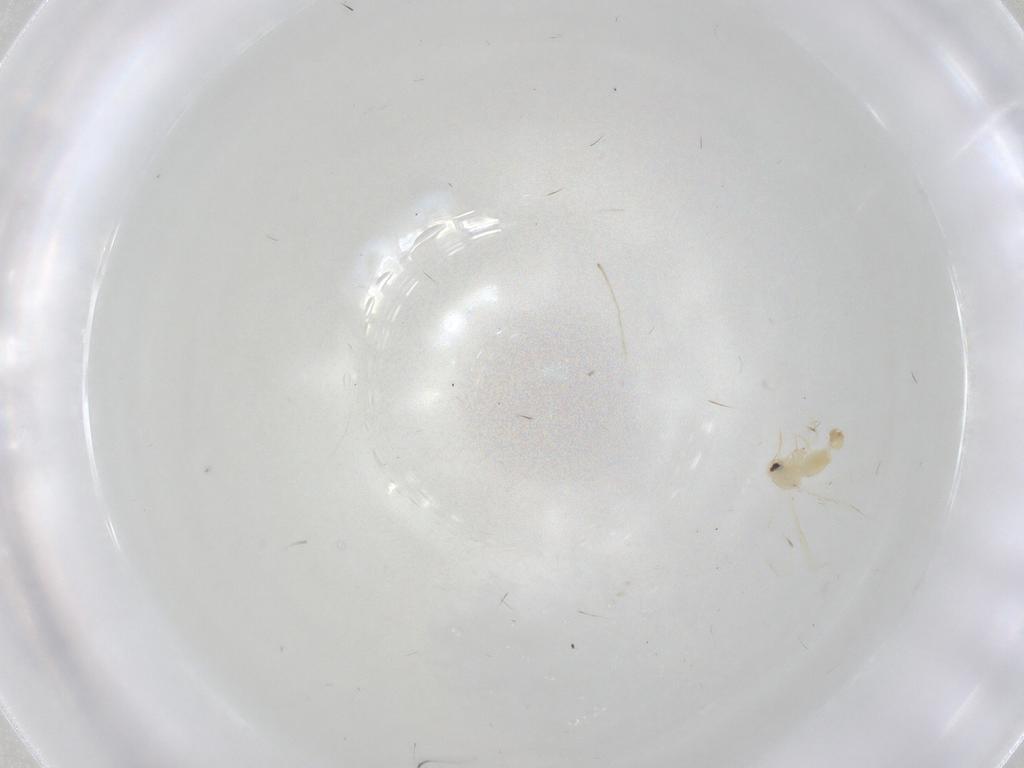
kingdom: Animalia
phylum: Arthropoda
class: Insecta
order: Hemiptera
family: Aleyrodidae
